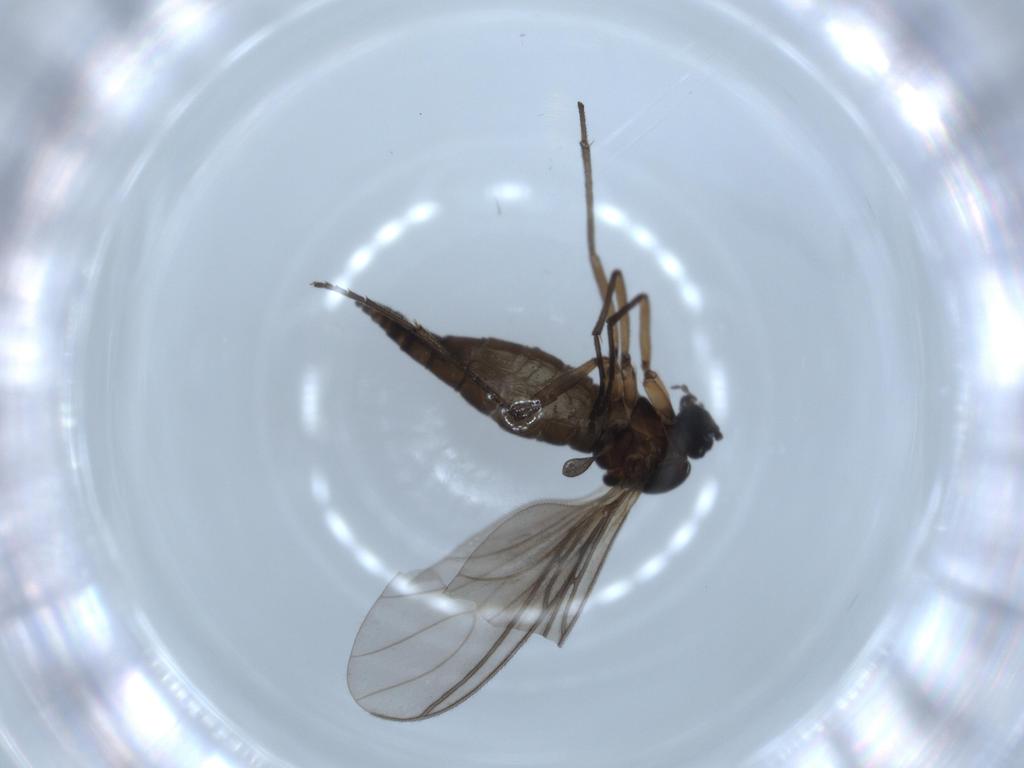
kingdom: Animalia
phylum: Arthropoda
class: Insecta
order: Diptera
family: Sciaridae
